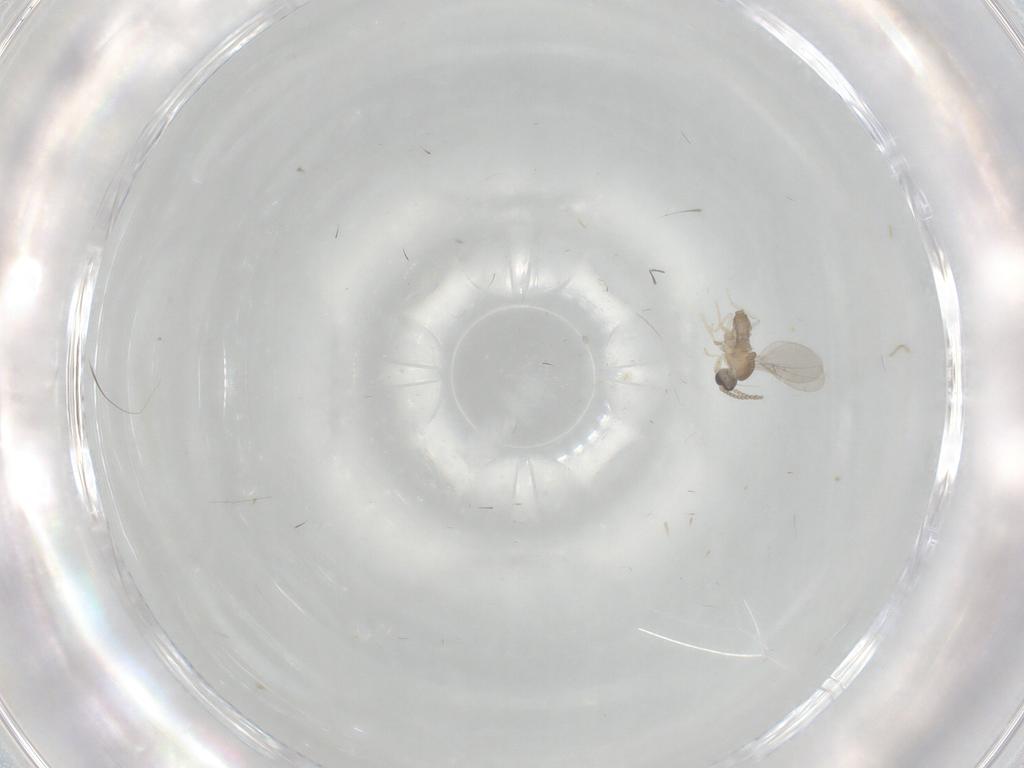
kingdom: Animalia
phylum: Arthropoda
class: Insecta
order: Diptera
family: Cecidomyiidae
